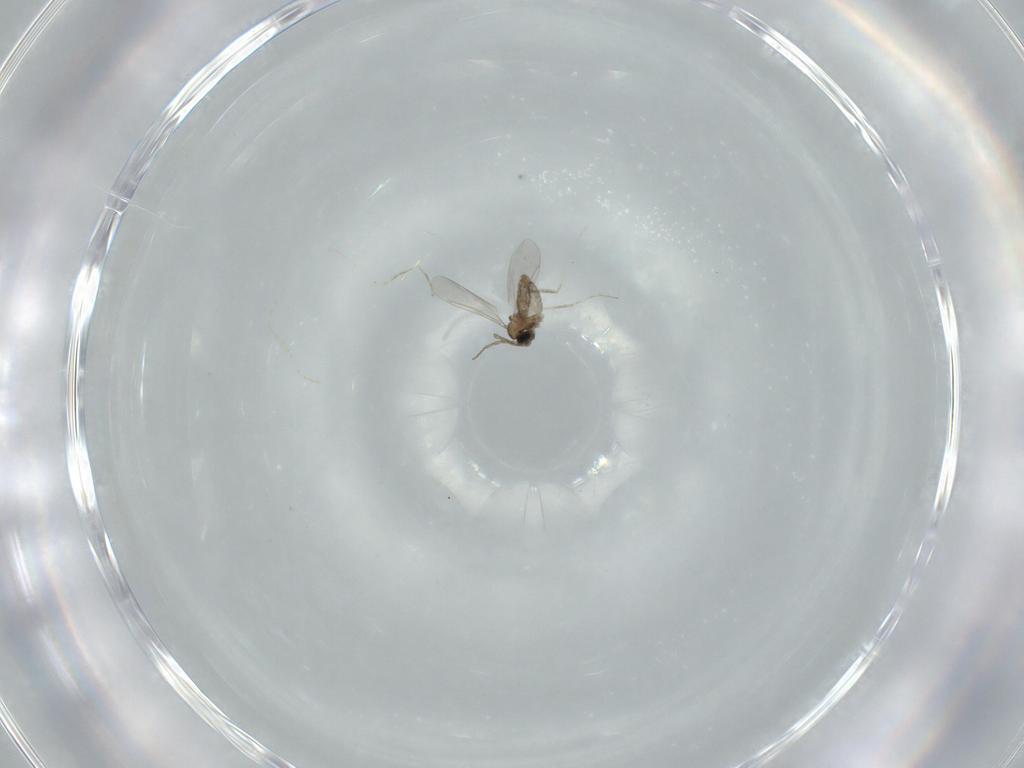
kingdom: Animalia
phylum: Arthropoda
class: Insecta
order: Diptera
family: Cecidomyiidae
